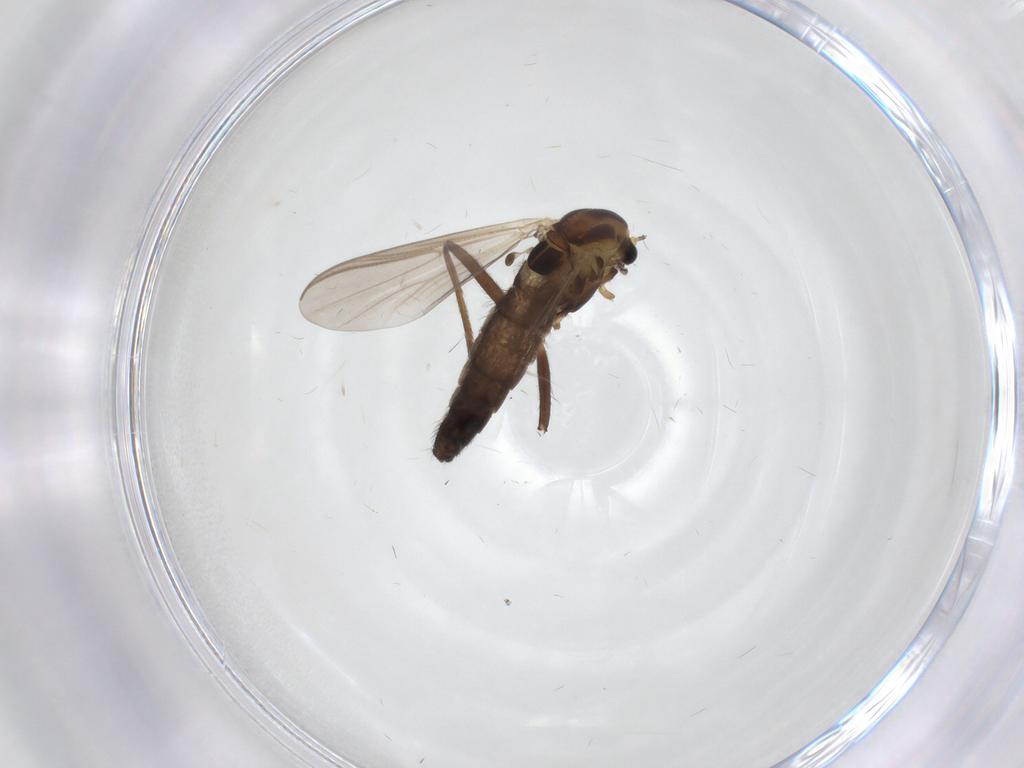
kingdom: Animalia
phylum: Arthropoda
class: Insecta
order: Diptera
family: Chironomidae
